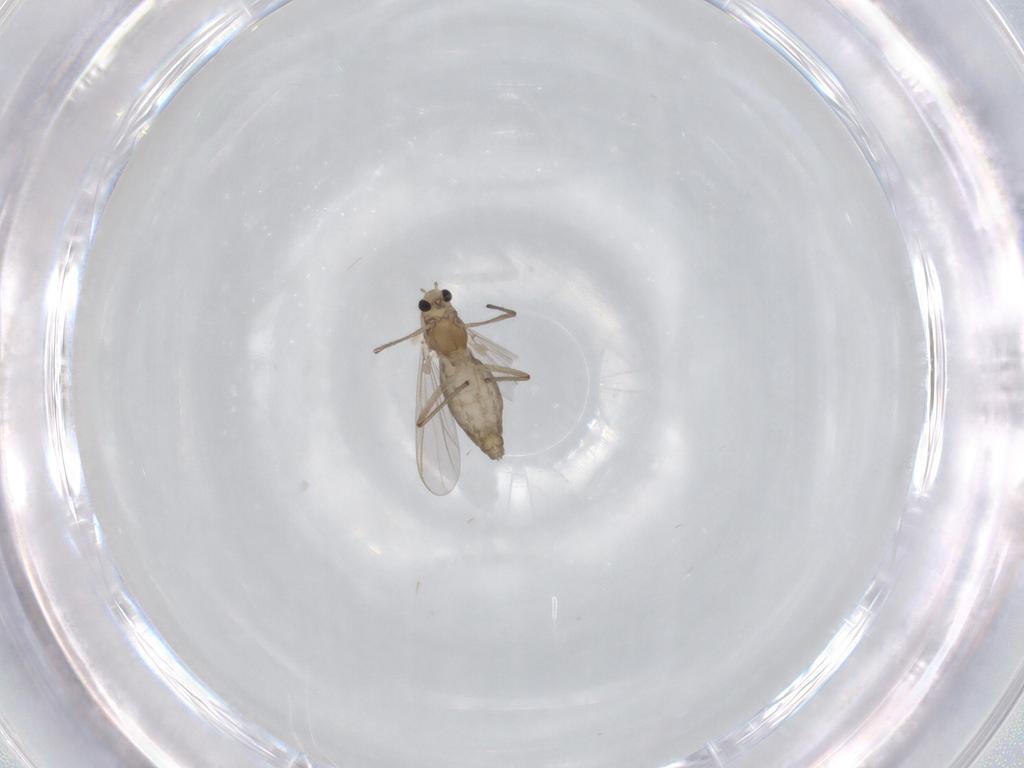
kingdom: Animalia
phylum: Arthropoda
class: Insecta
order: Diptera
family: Chironomidae
